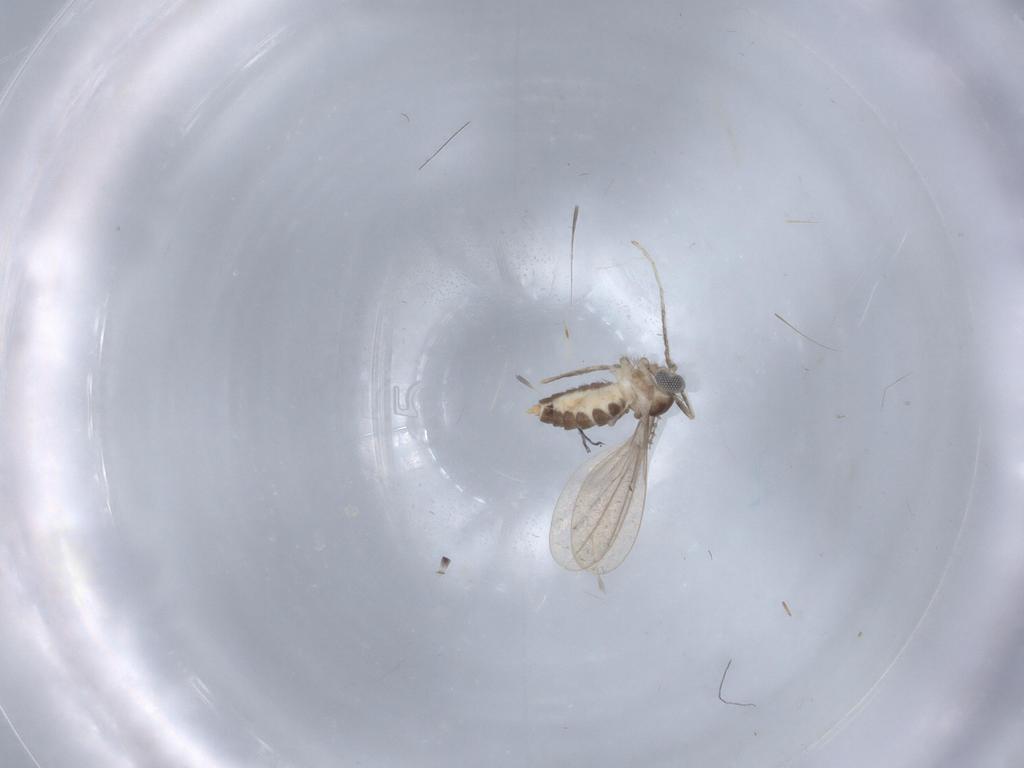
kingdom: Animalia
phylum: Arthropoda
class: Insecta
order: Diptera
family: Cecidomyiidae
